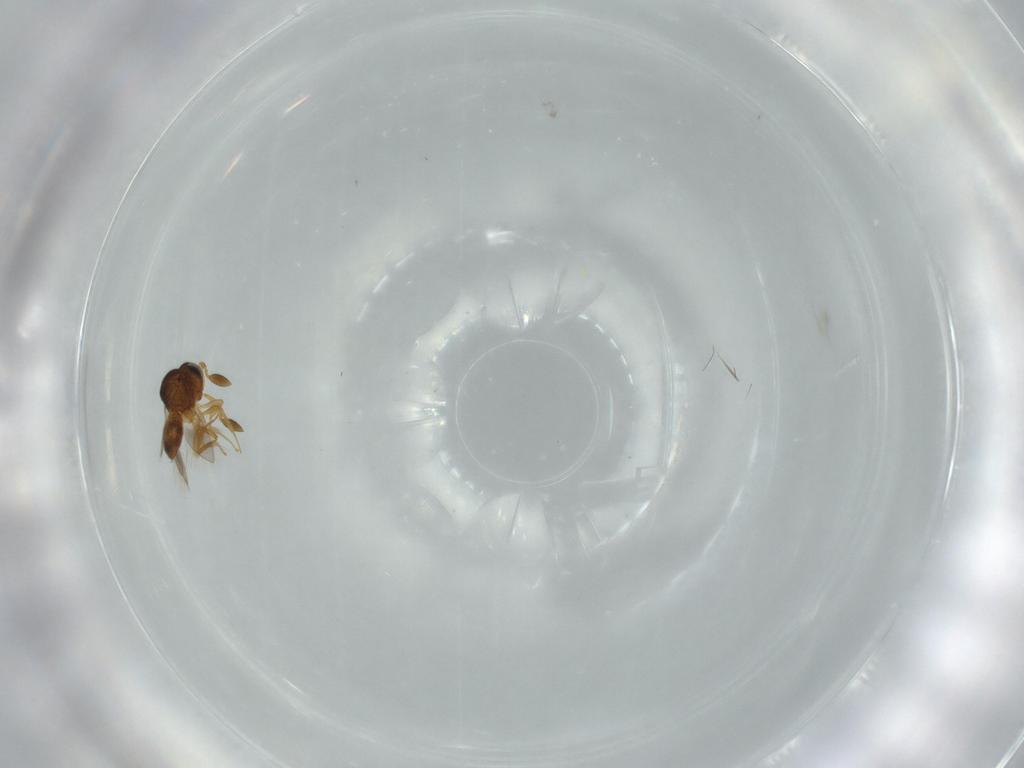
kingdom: Animalia
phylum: Arthropoda
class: Insecta
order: Hymenoptera
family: Scelionidae
